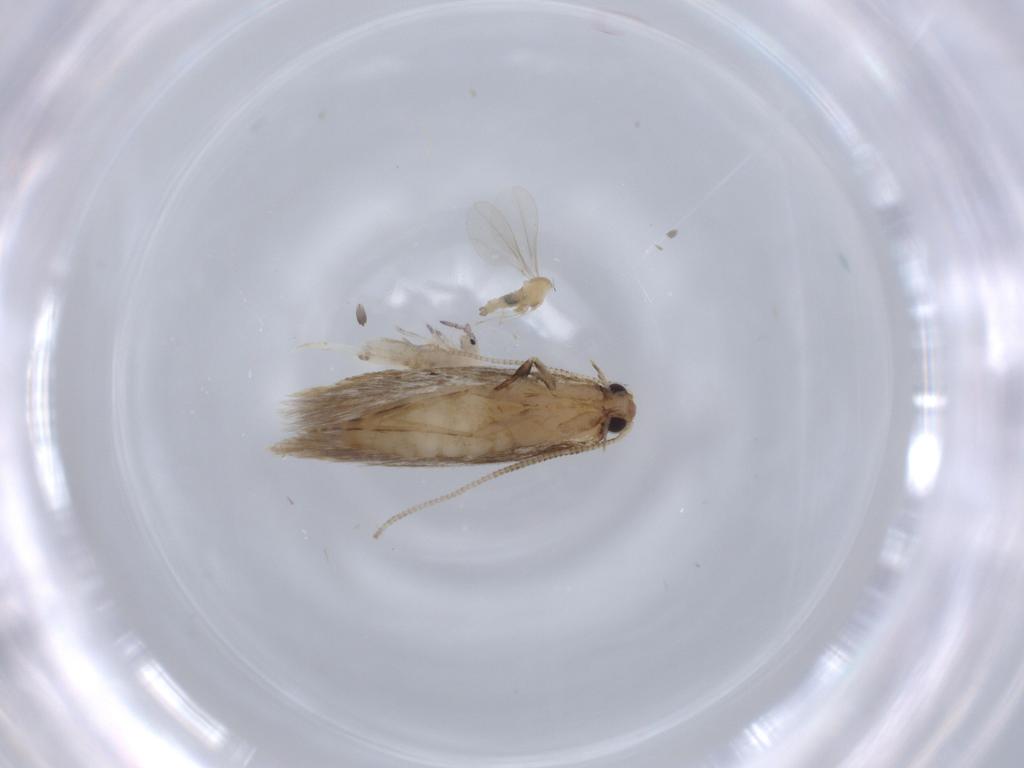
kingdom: Animalia
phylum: Arthropoda
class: Insecta
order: Lepidoptera
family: Tineidae
